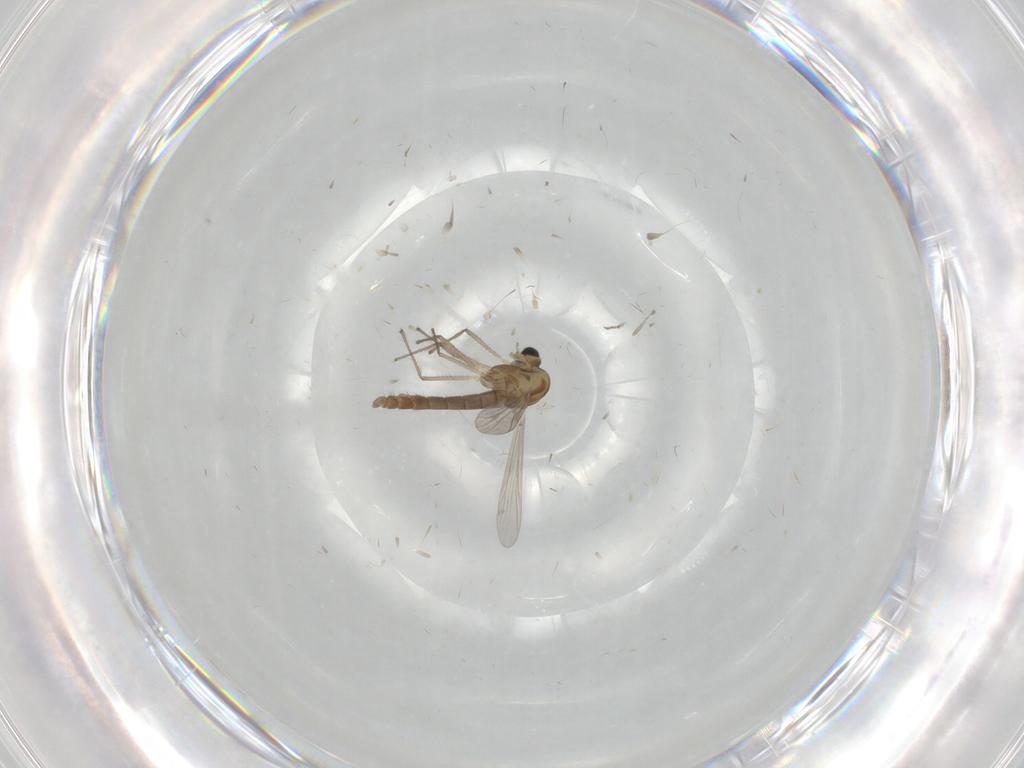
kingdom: Animalia
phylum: Arthropoda
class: Insecta
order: Diptera
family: Chironomidae
